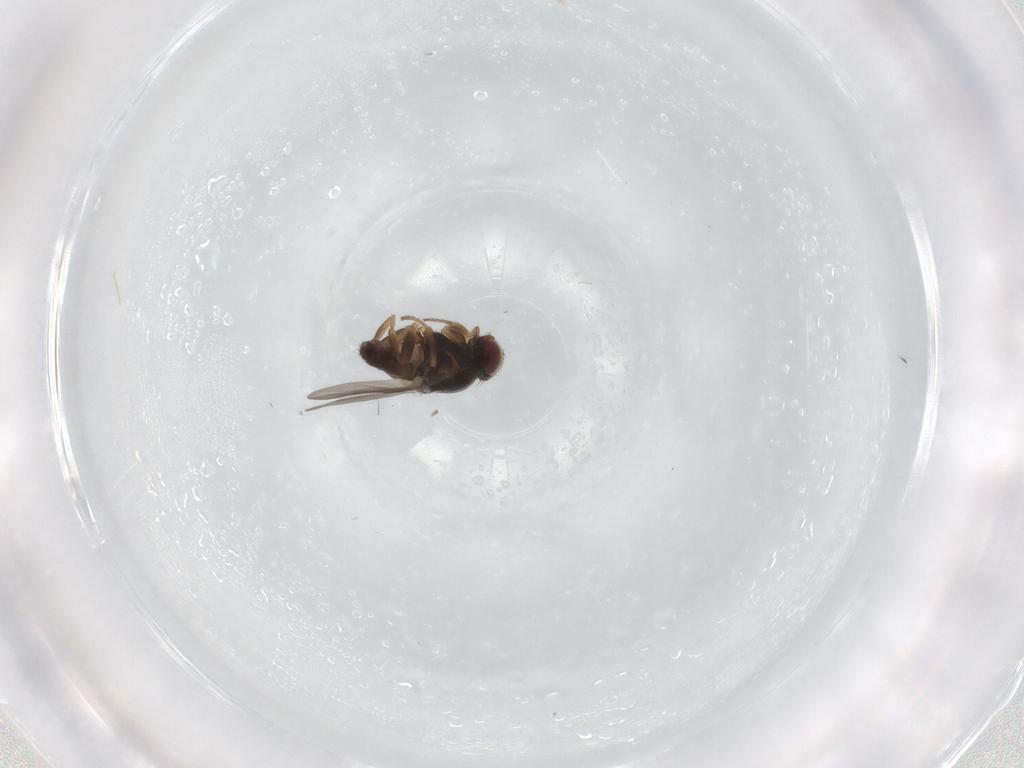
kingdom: Animalia
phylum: Arthropoda
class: Insecta
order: Diptera
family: Chloropidae
